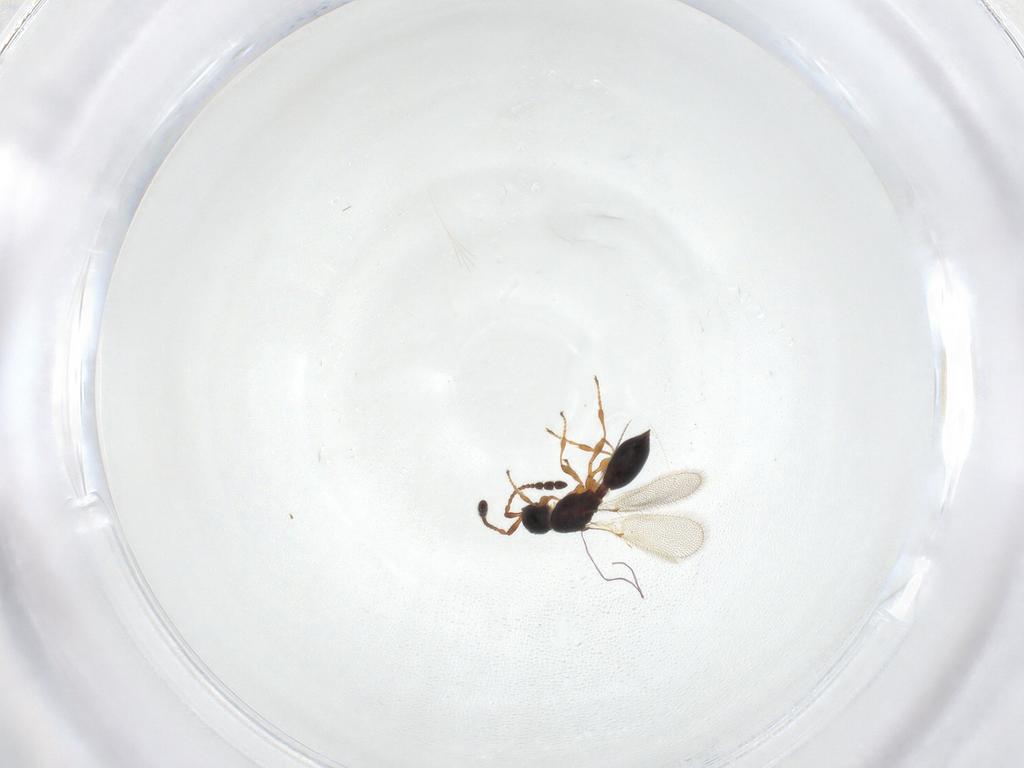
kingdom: Animalia
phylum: Arthropoda
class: Insecta
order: Hymenoptera
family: Diapriidae
